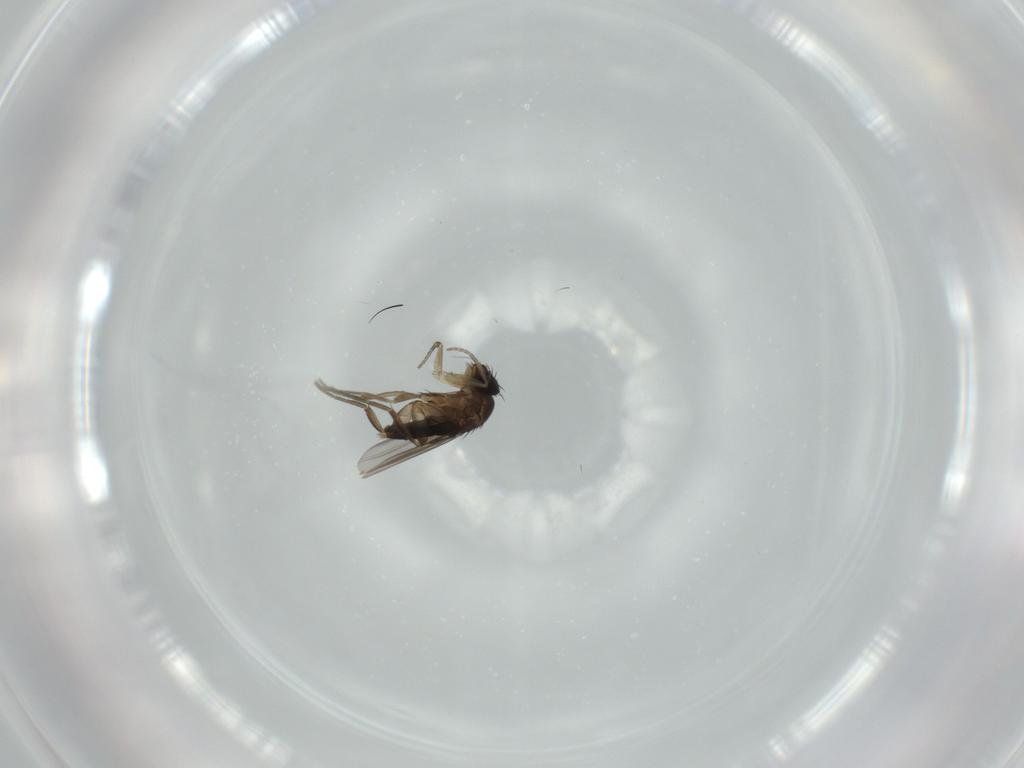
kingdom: Animalia
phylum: Arthropoda
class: Insecta
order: Diptera
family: Phoridae
